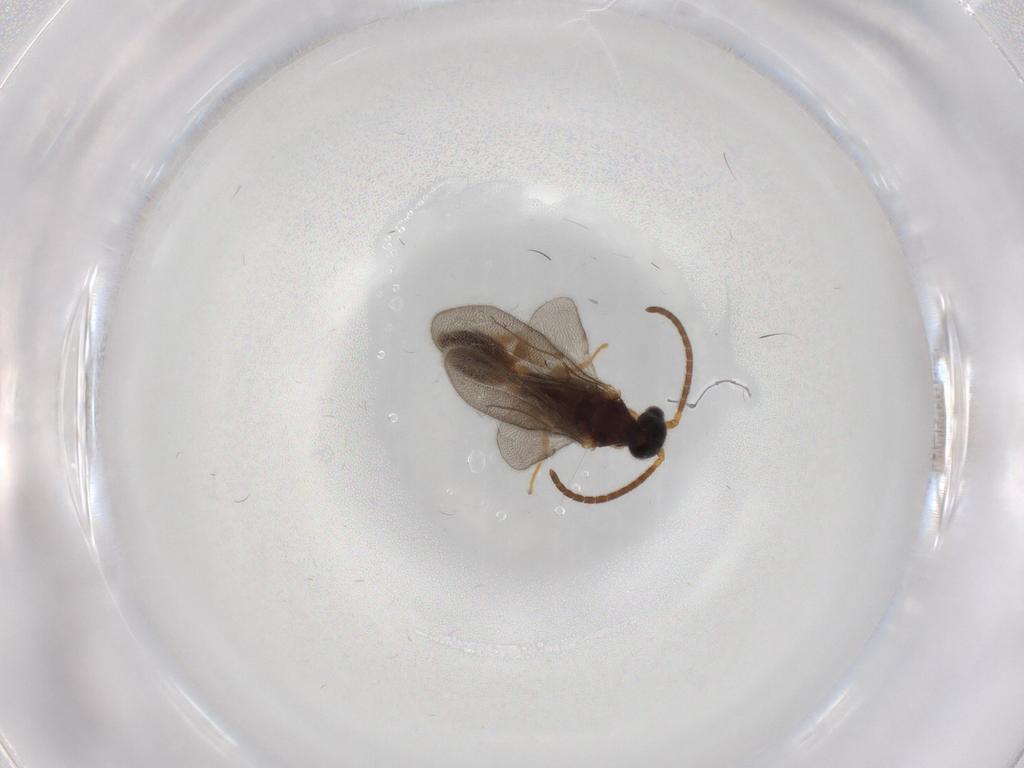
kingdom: Animalia
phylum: Arthropoda
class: Insecta
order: Hymenoptera
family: Bethylidae
